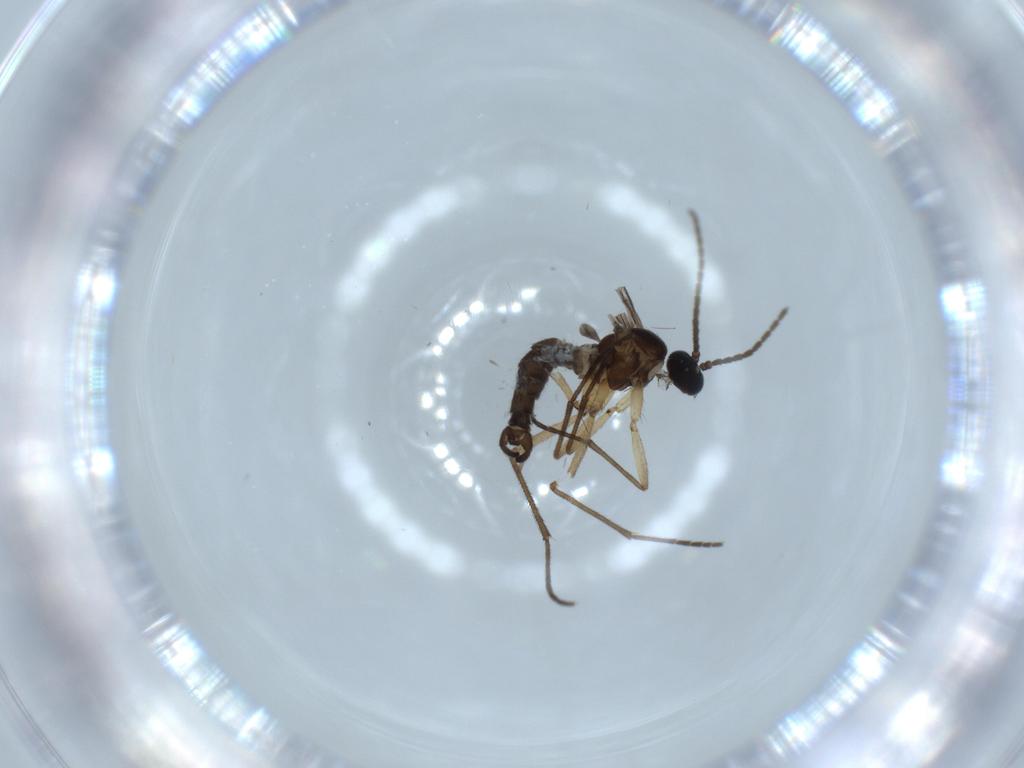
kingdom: Animalia
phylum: Arthropoda
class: Insecta
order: Diptera
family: Sciaridae
